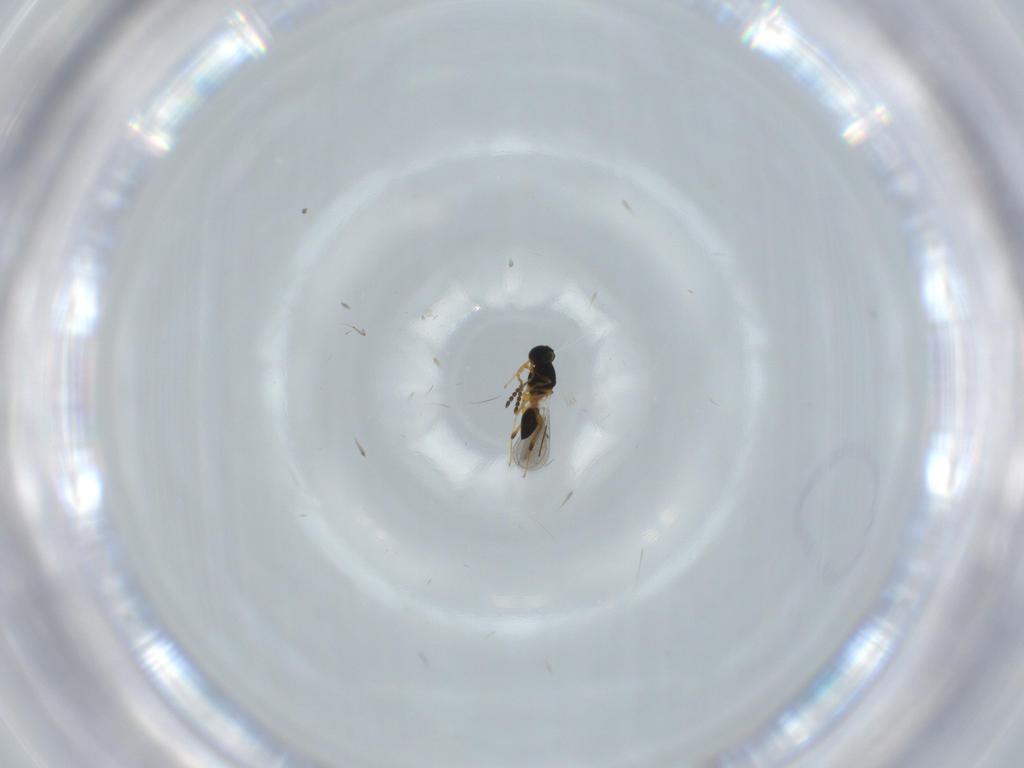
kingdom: Animalia
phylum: Arthropoda
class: Insecta
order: Hymenoptera
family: Platygastridae
